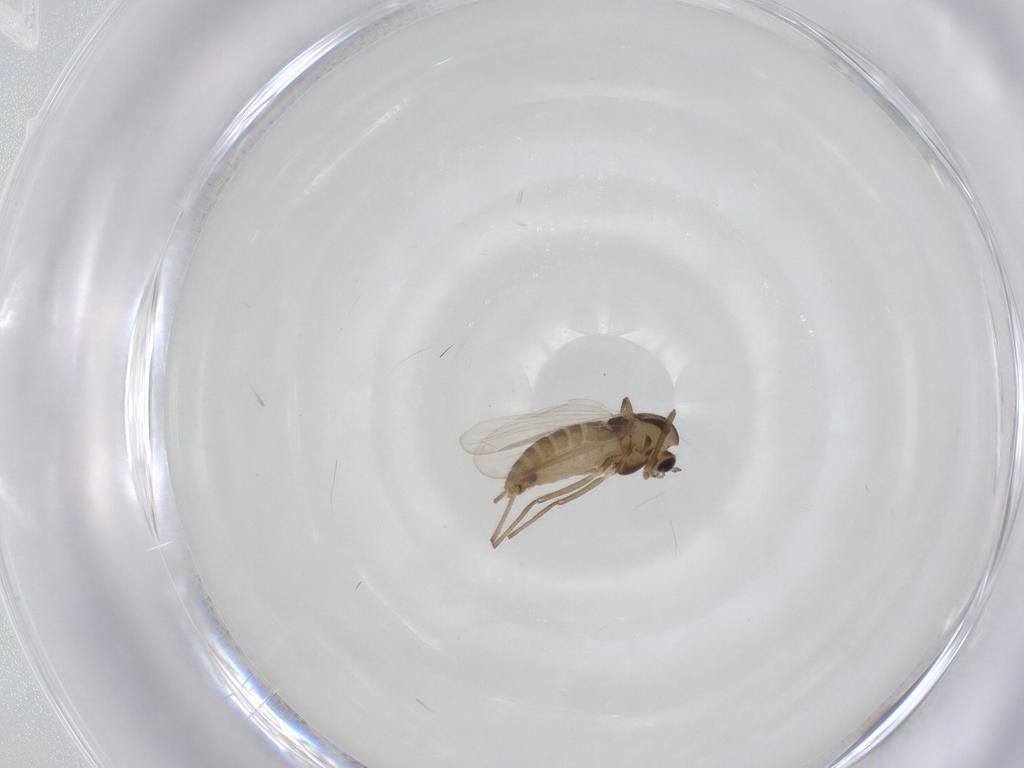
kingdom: Animalia
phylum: Arthropoda
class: Insecta
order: Diptera
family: Chironomidae
